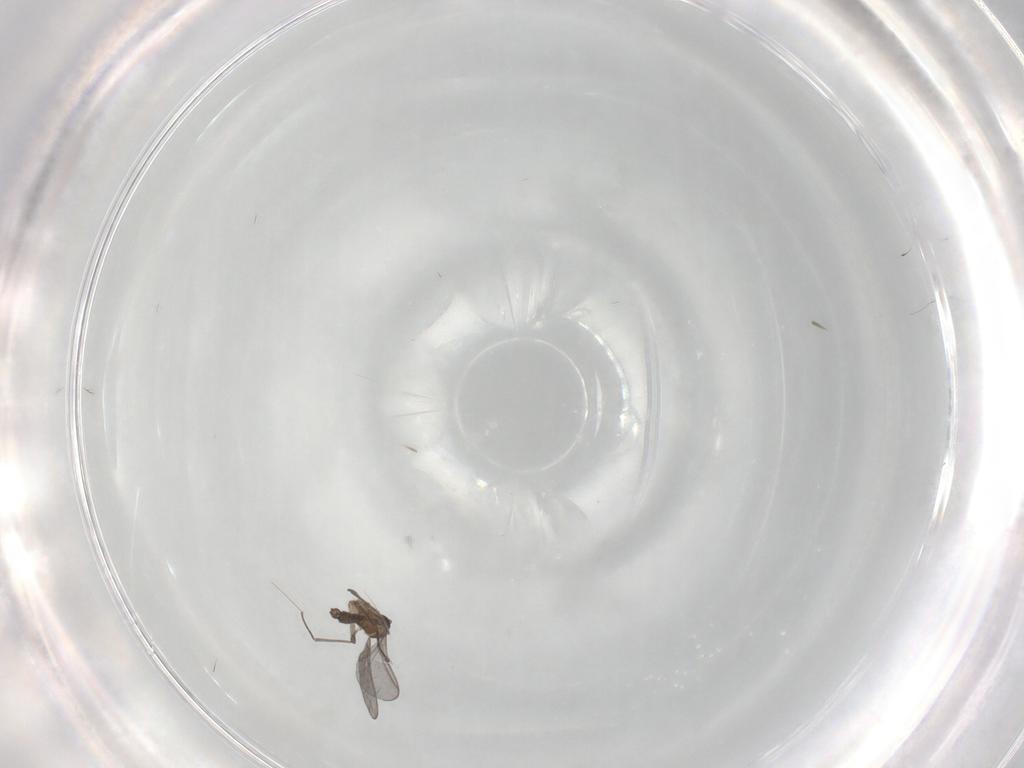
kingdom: Animalia
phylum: Arthropoda
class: Insecta
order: Diptera
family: Sciaridae
